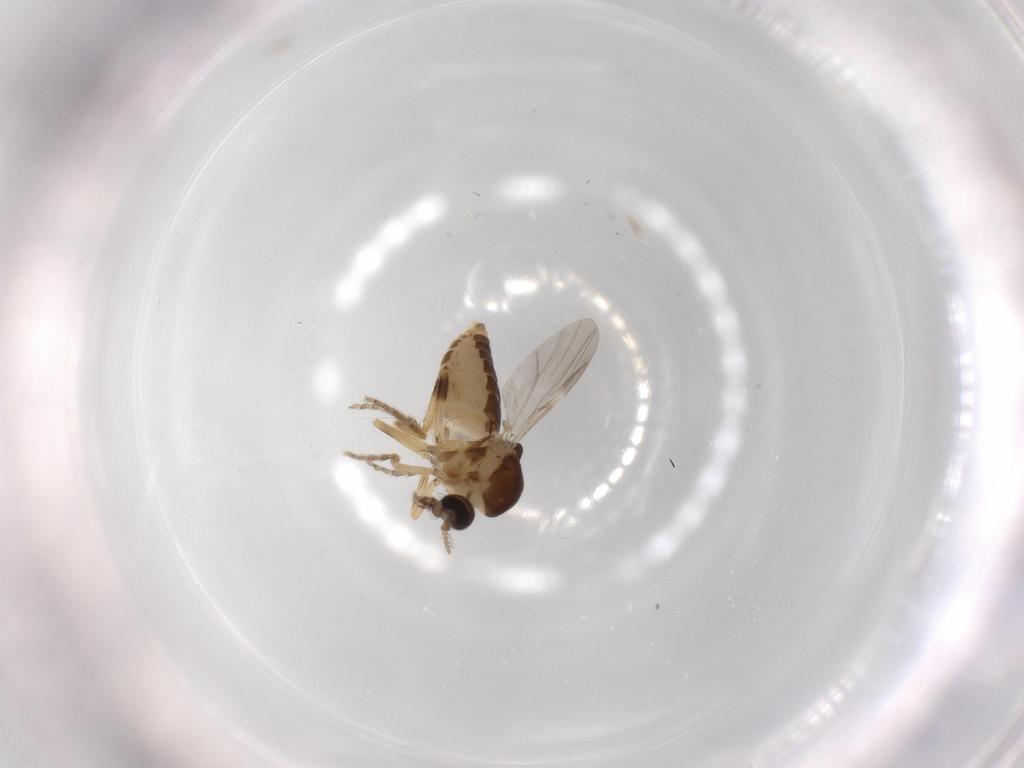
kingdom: Animalia
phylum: Arthropoda
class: Insecta
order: Diptera
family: Ceratopogonidae
